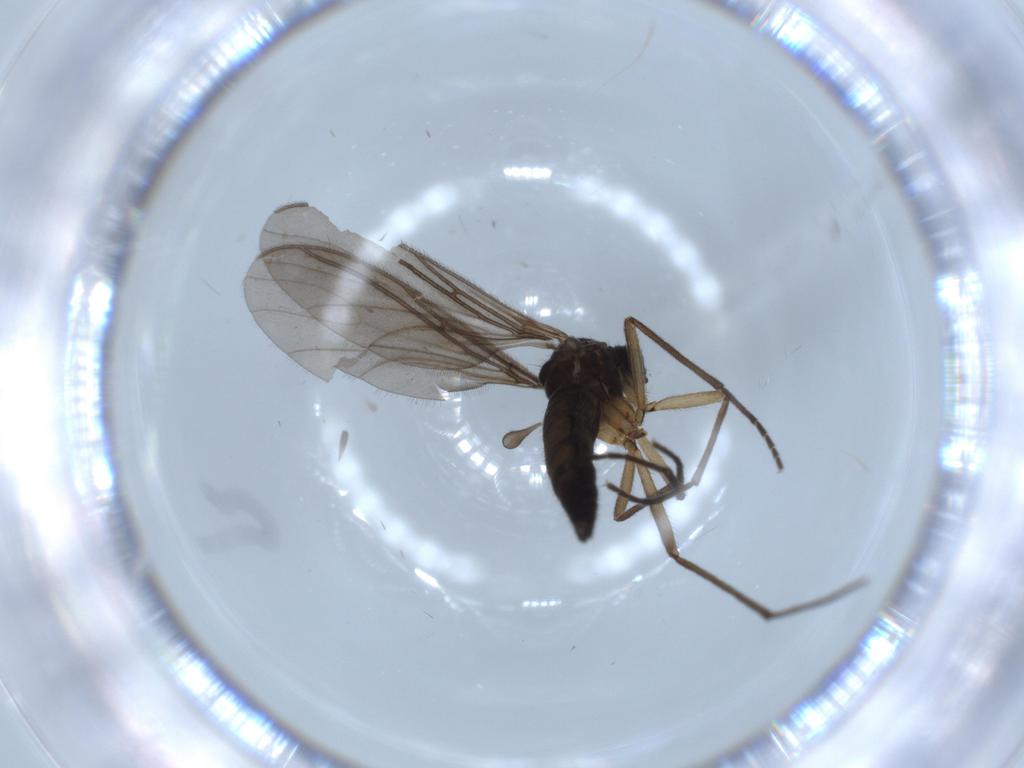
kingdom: Animalia
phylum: Arthropoda
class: Insecta
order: Diptera
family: Sciaridae
